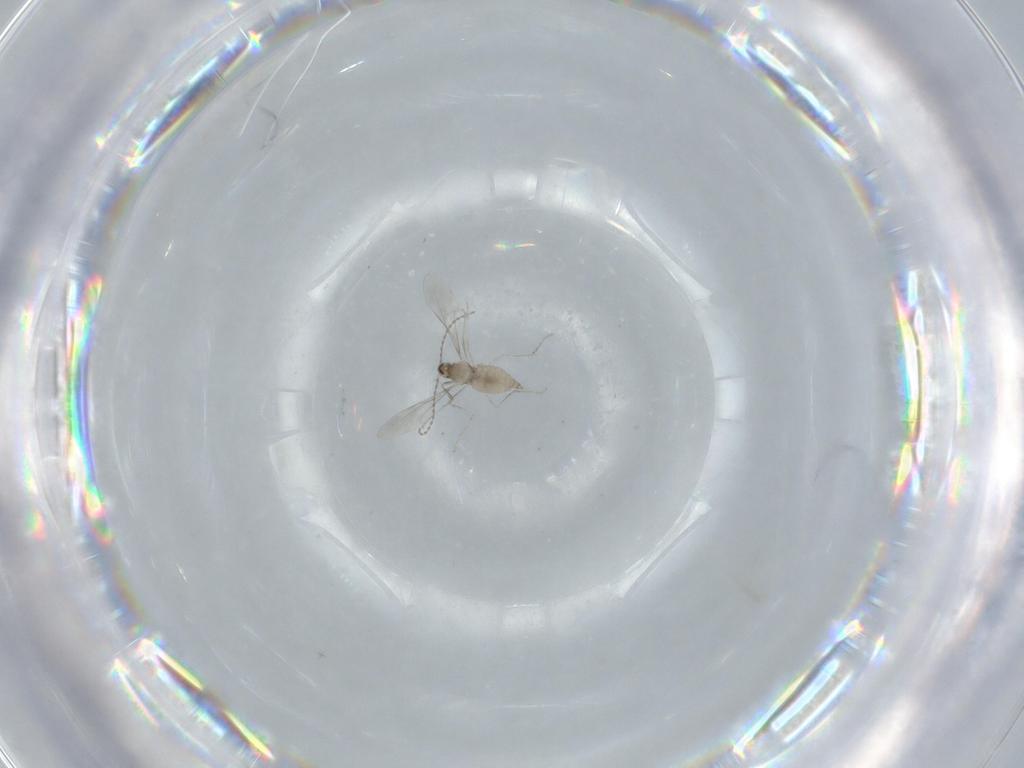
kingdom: Animalia
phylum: Arthropoda
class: Insecta
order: Diptera
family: Cecidomyiidae
